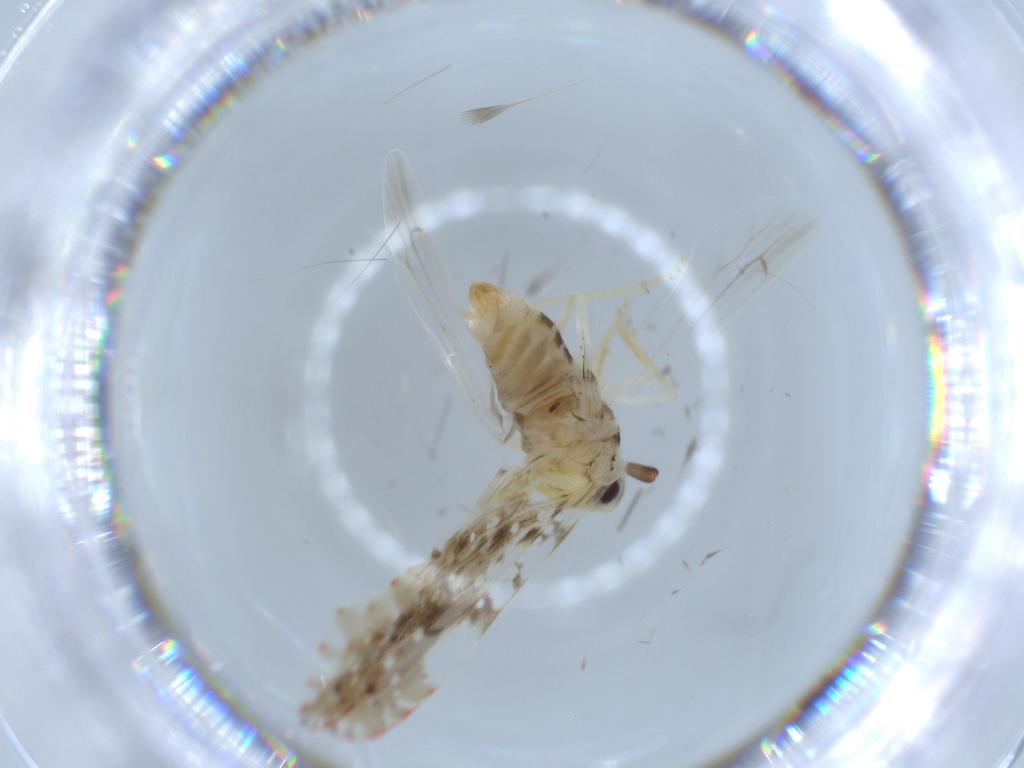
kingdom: Animalia
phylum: Arthropoda
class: Insecta
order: Hemiptera
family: Derbidae
